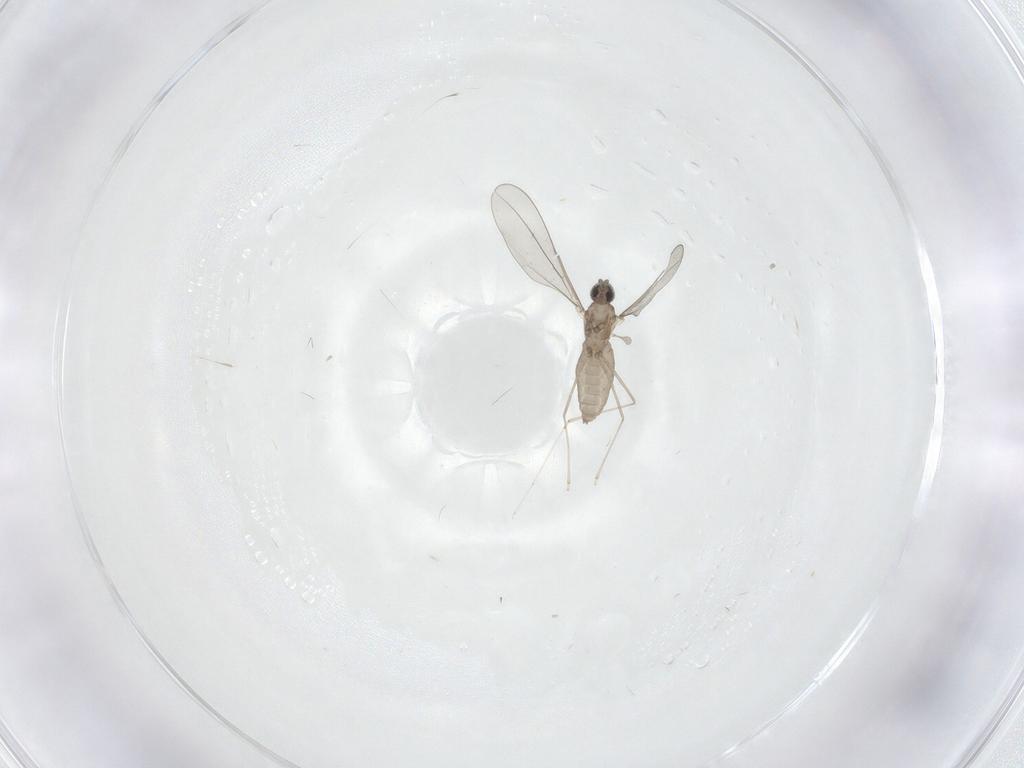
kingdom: Animalia
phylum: Arthropoda
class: Insecta
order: Diptera
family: Cecidomyiidae
